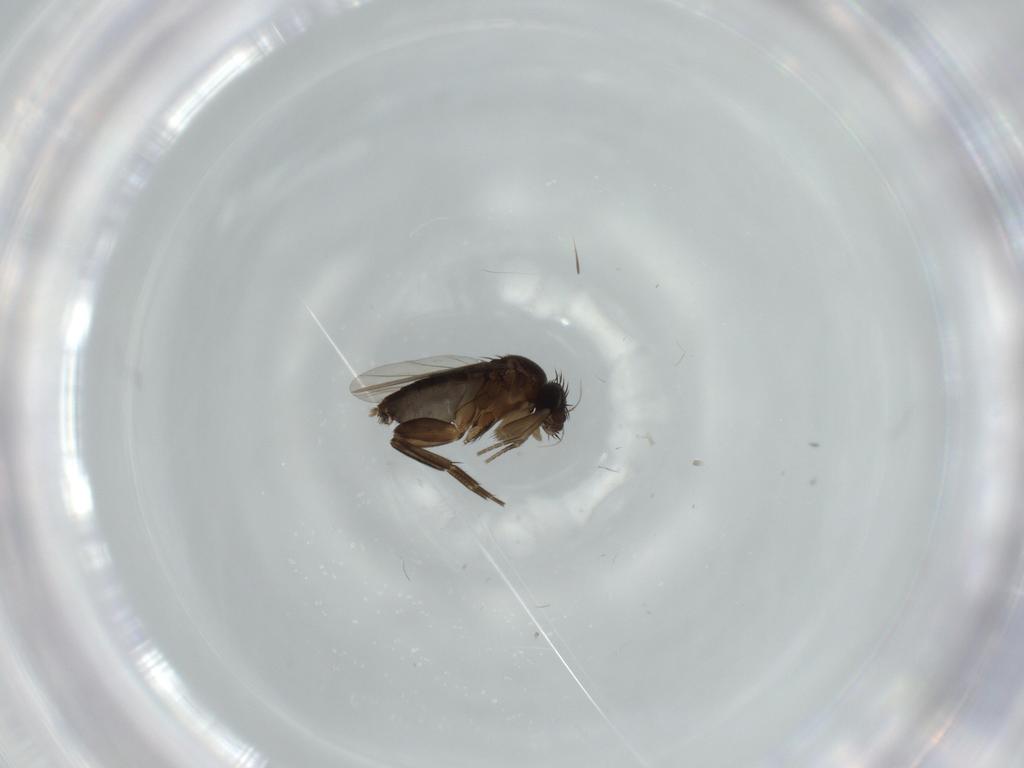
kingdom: Animalia
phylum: Arthropoda
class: Insecta
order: Diptera
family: Phoridae
